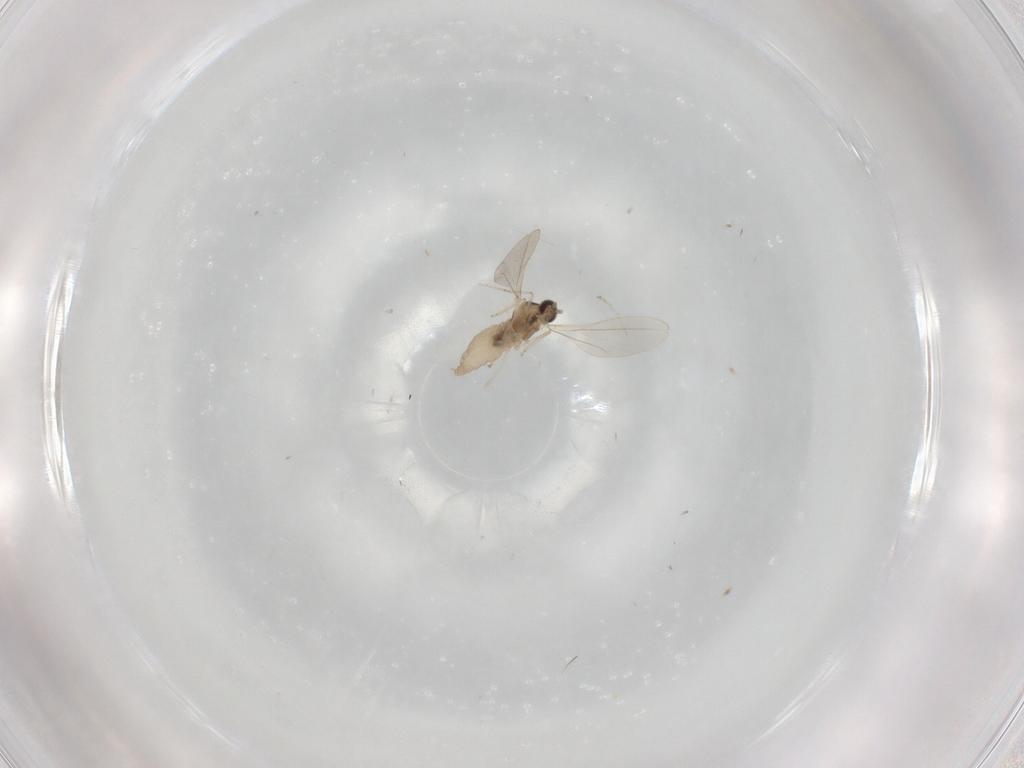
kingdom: Animalia
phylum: Arthropoda
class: Insecta
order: Diptera
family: Cecidomyiidae
